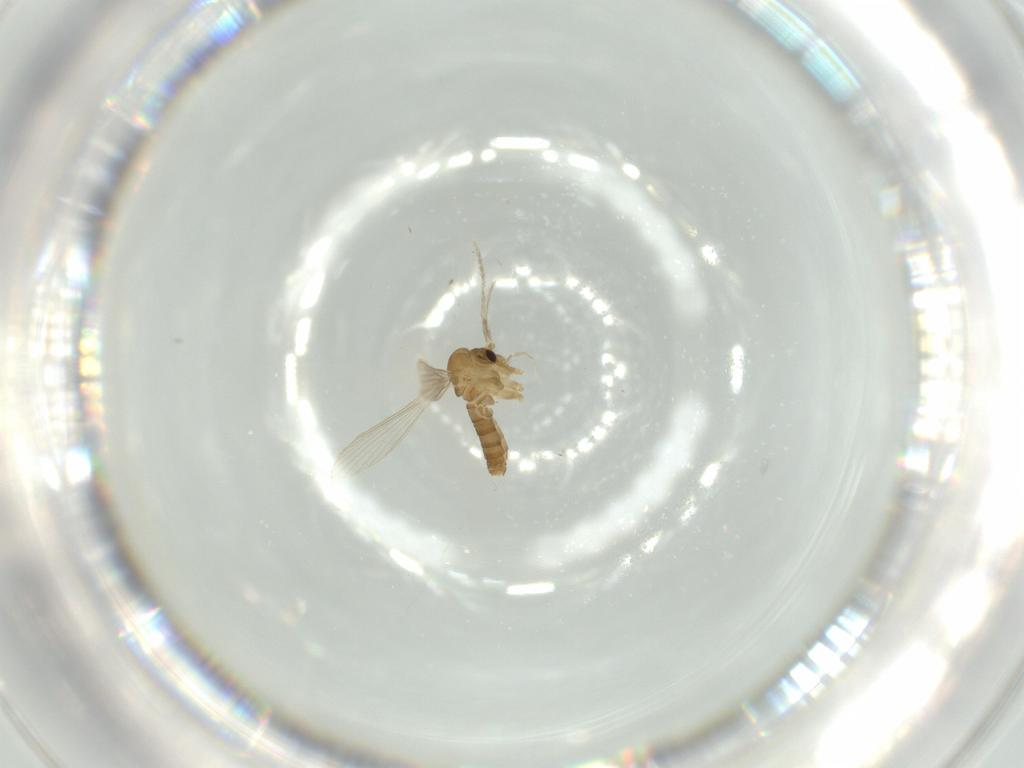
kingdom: Animalia
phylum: Arthropoda
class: Insecta
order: Diptera
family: Psychodidae
